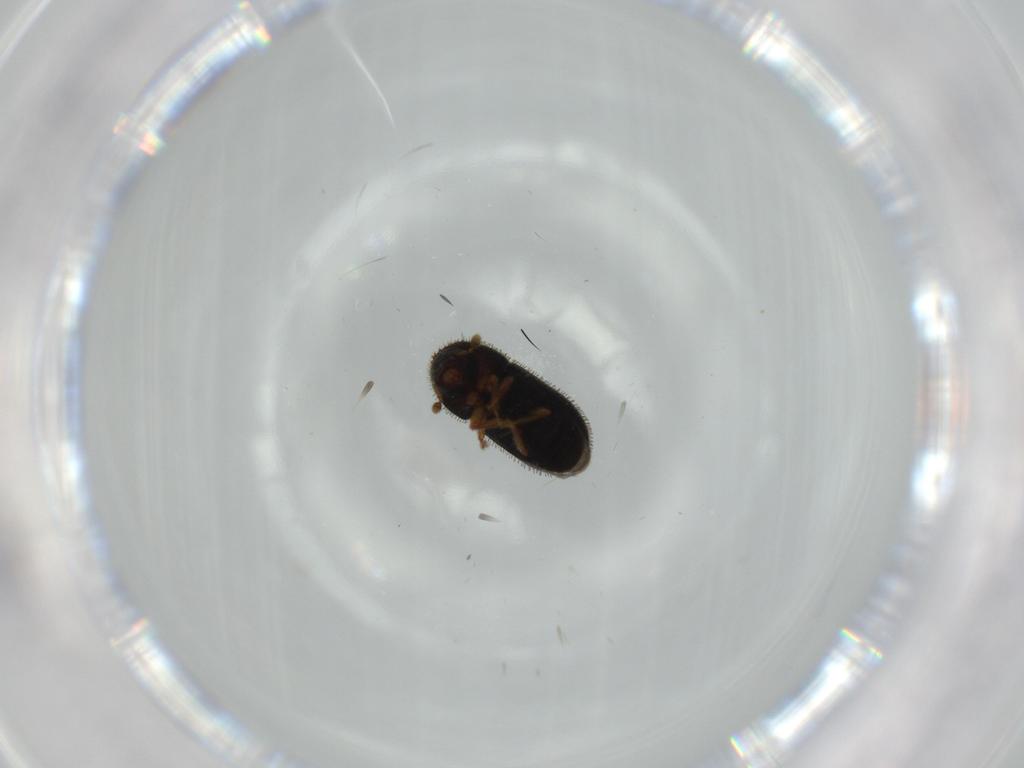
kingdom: Animalia
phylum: Arthropoda
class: Insecta
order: Coleoptera
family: Curculionidae
